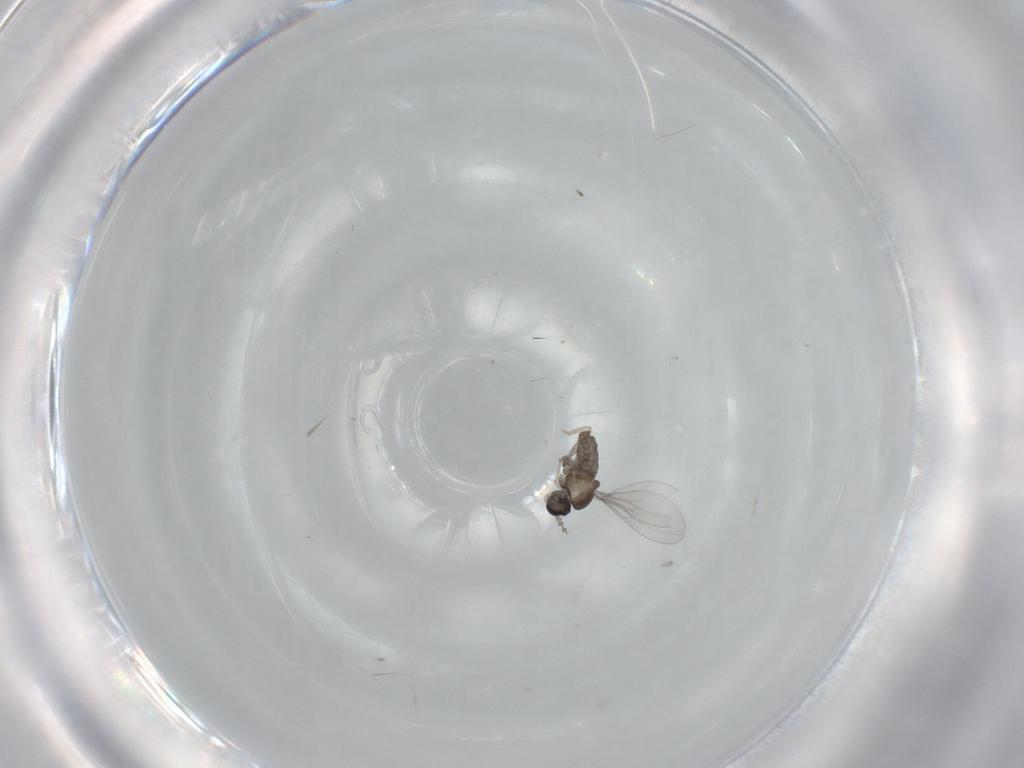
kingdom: Animalia
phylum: Arthropoda
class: Insecta
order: Diptera
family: Cecidomyiidae
